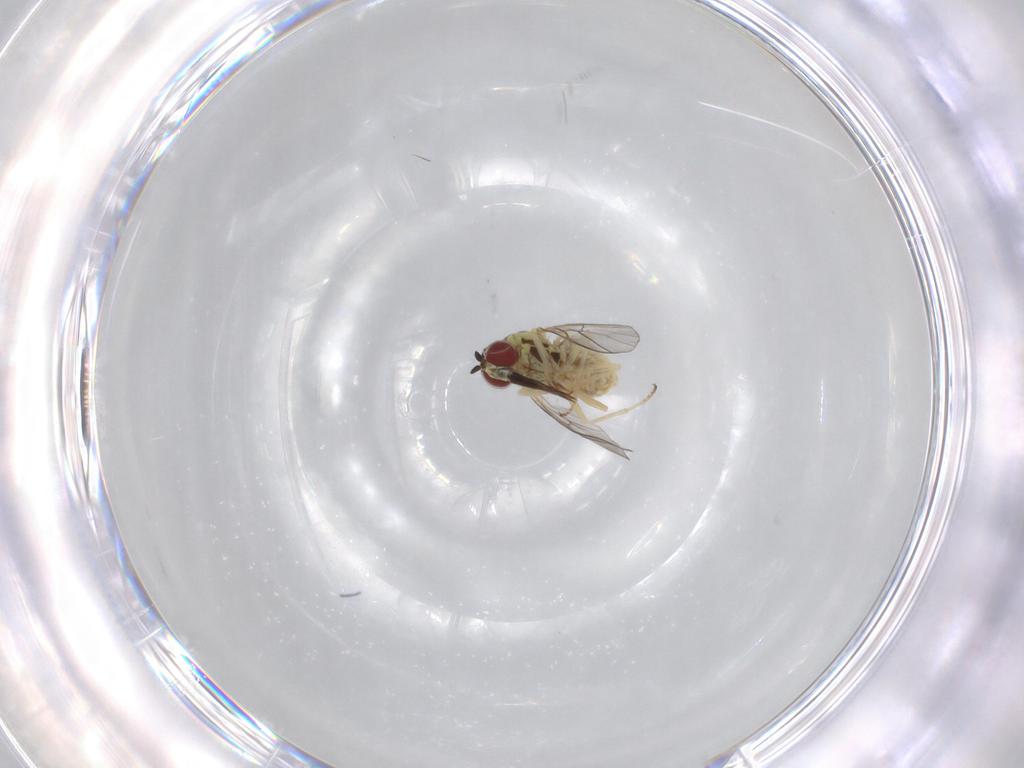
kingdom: Animalia
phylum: Arthropoda
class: Insecta
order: Diptera
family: Bombyliidae
